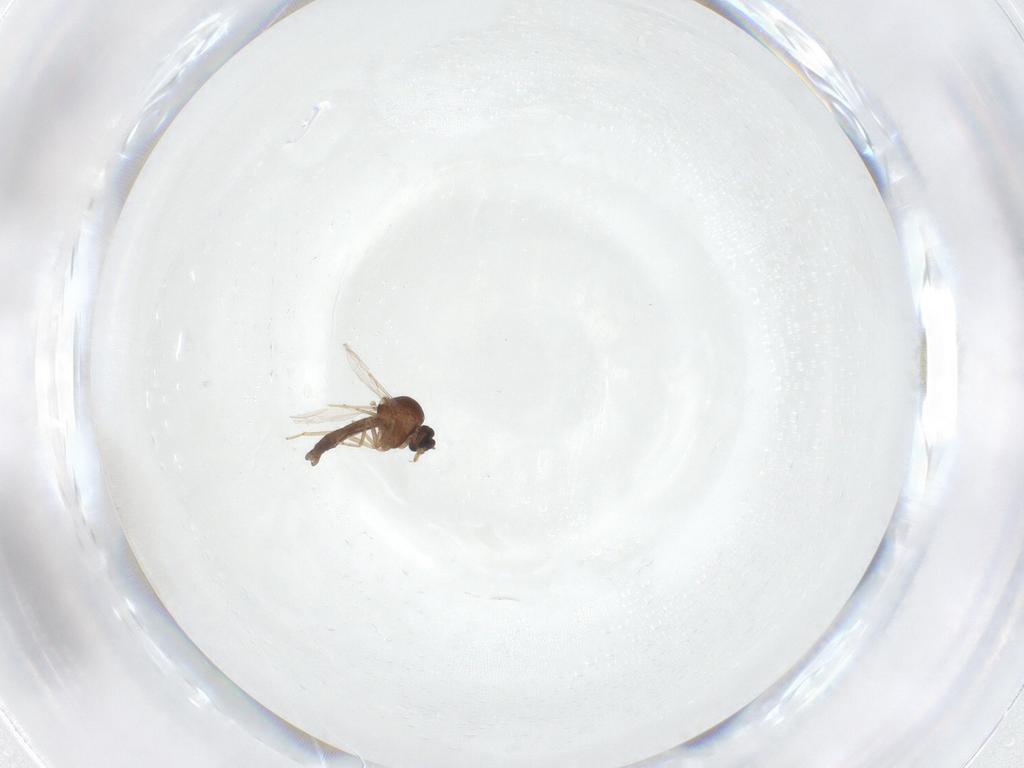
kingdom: Animalia
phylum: Arthropoda
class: Insecta
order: Diptera
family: Ceratopogonidae
